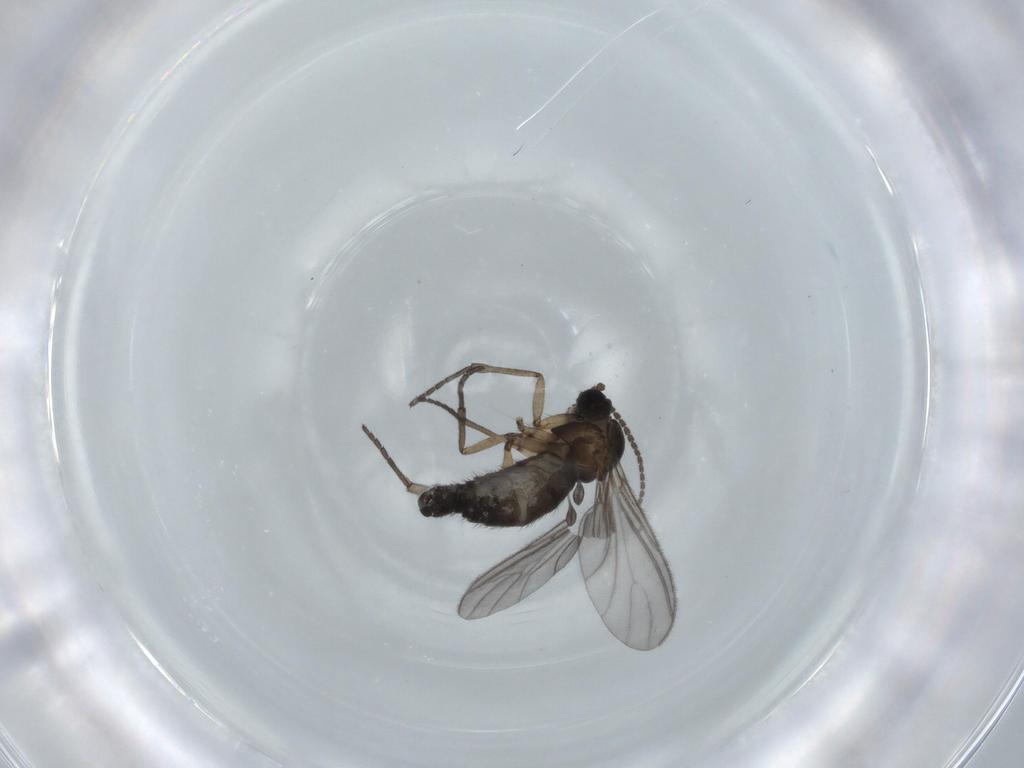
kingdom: Animalia
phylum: Arthropoda
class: Insecta
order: Diptera
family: Sciaridae
